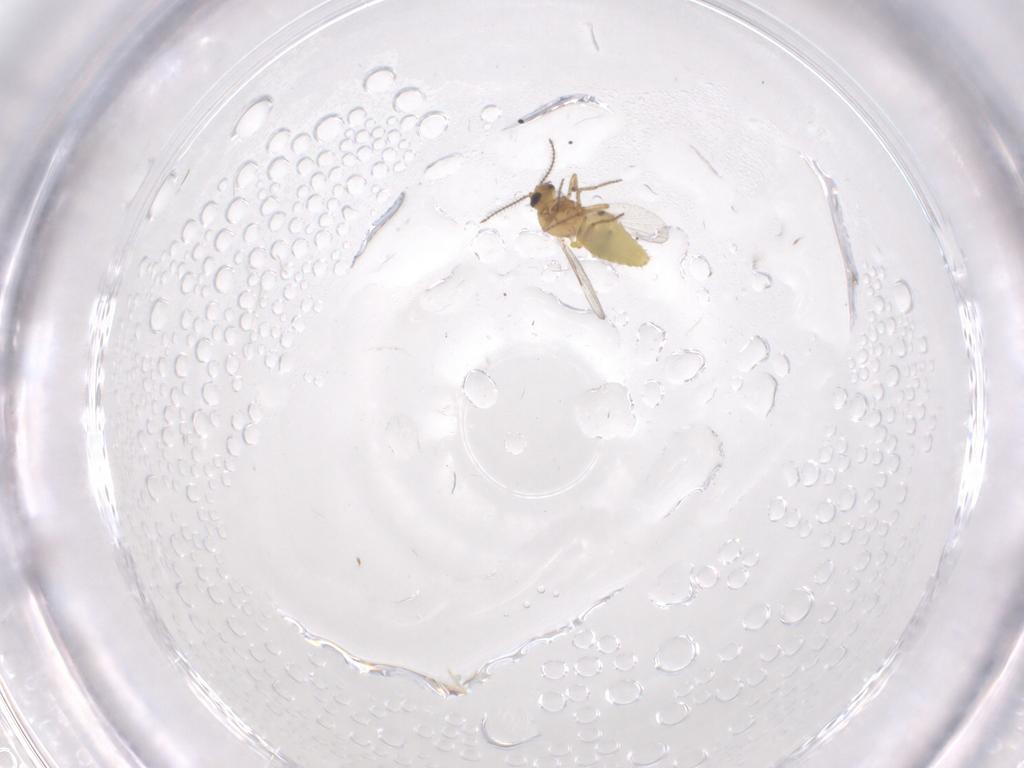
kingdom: Animalia
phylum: Arthropoda
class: Insecta
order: Diptera
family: Ceratopogonidae
